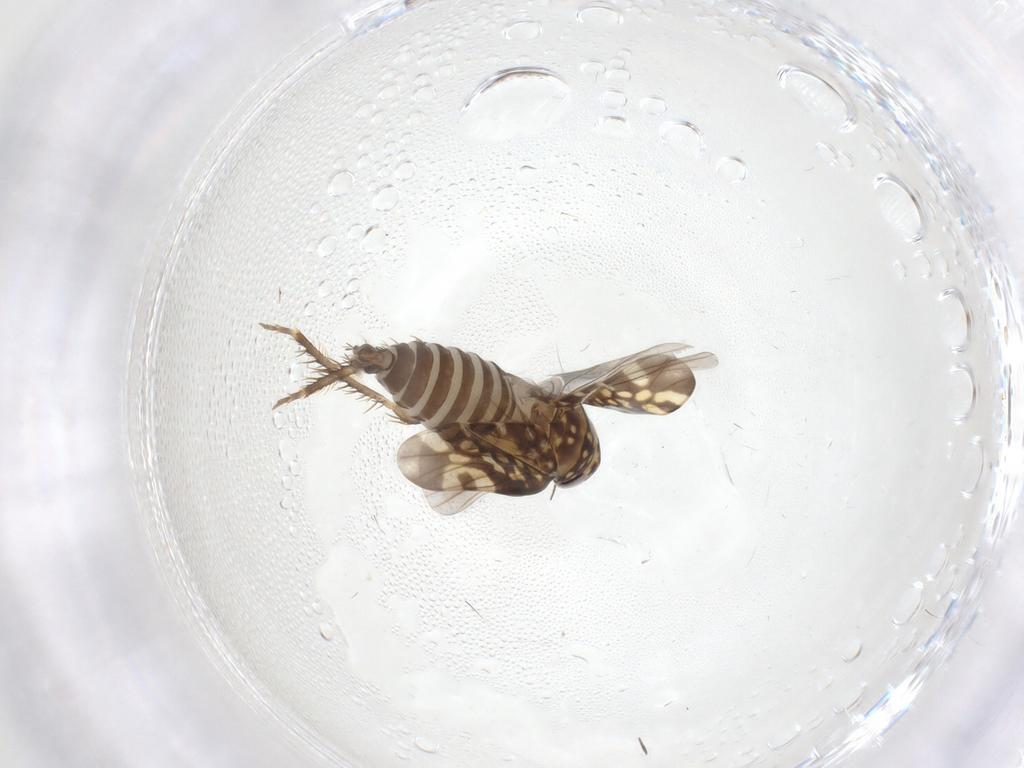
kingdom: Animalia
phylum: Arthropoda
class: Insecta
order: Hemiptera
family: Cicadellidae
